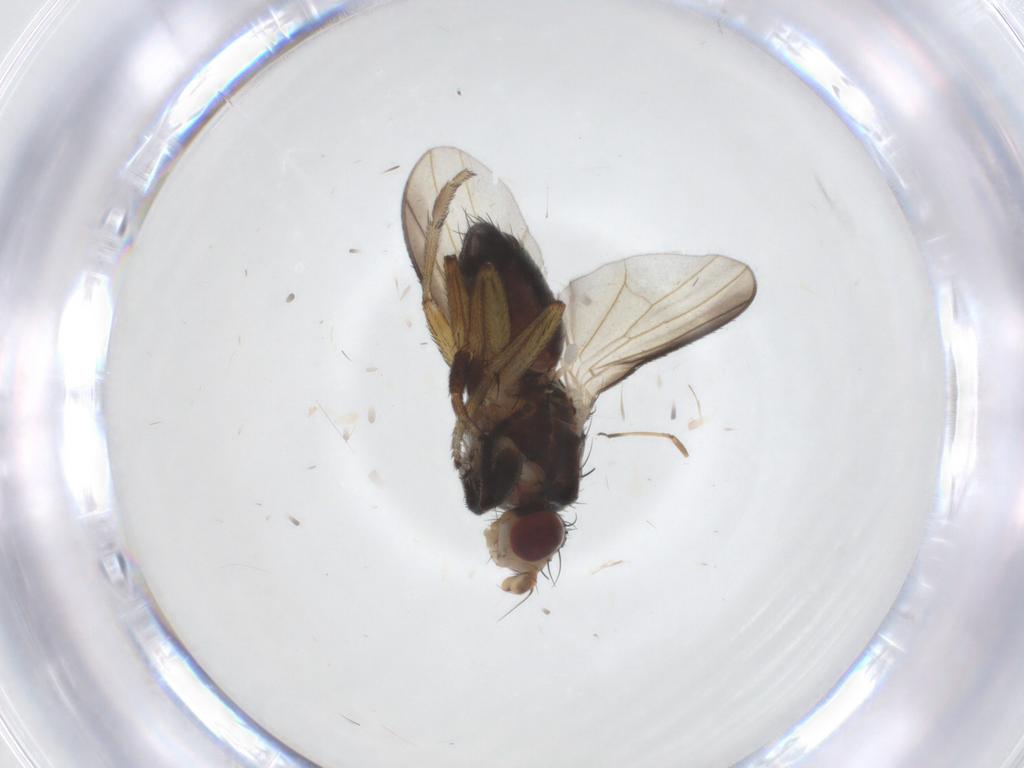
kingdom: Animalia
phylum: Arthropoda
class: Insecta
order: Diptera
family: Heleomyzidae
